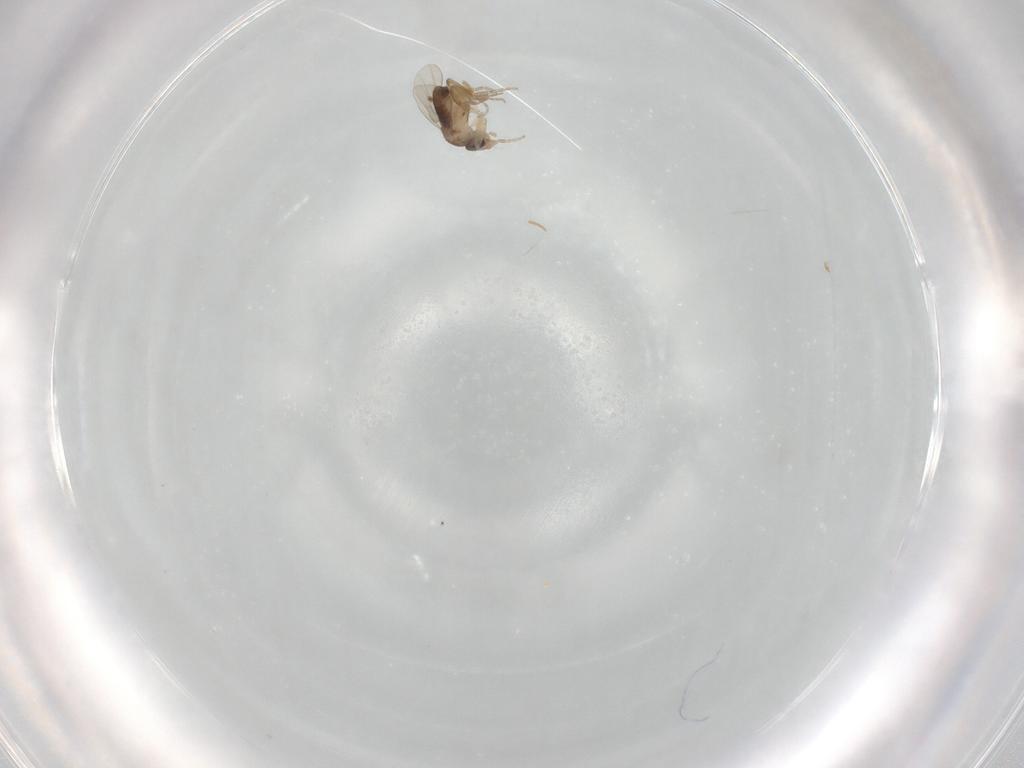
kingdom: Animalia
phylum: Arthropoda
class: Insecta
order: Diptera
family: Phoridae
